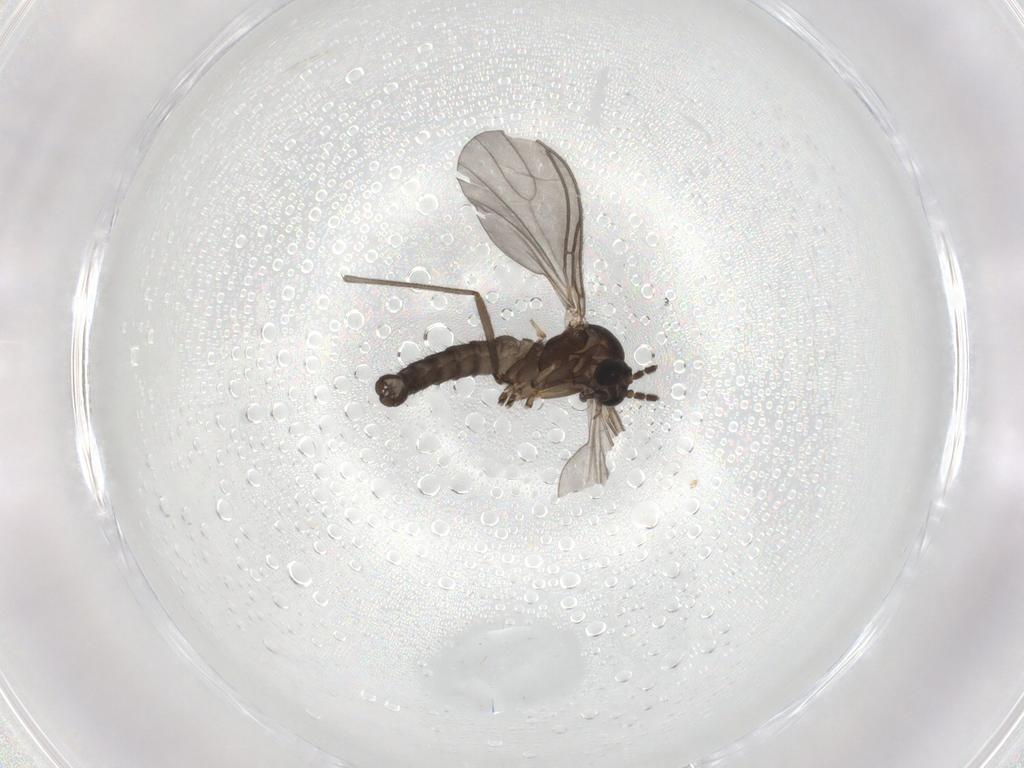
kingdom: Animalia
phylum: Arthropoda
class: Insecta
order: Diptera
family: Sciaridae
